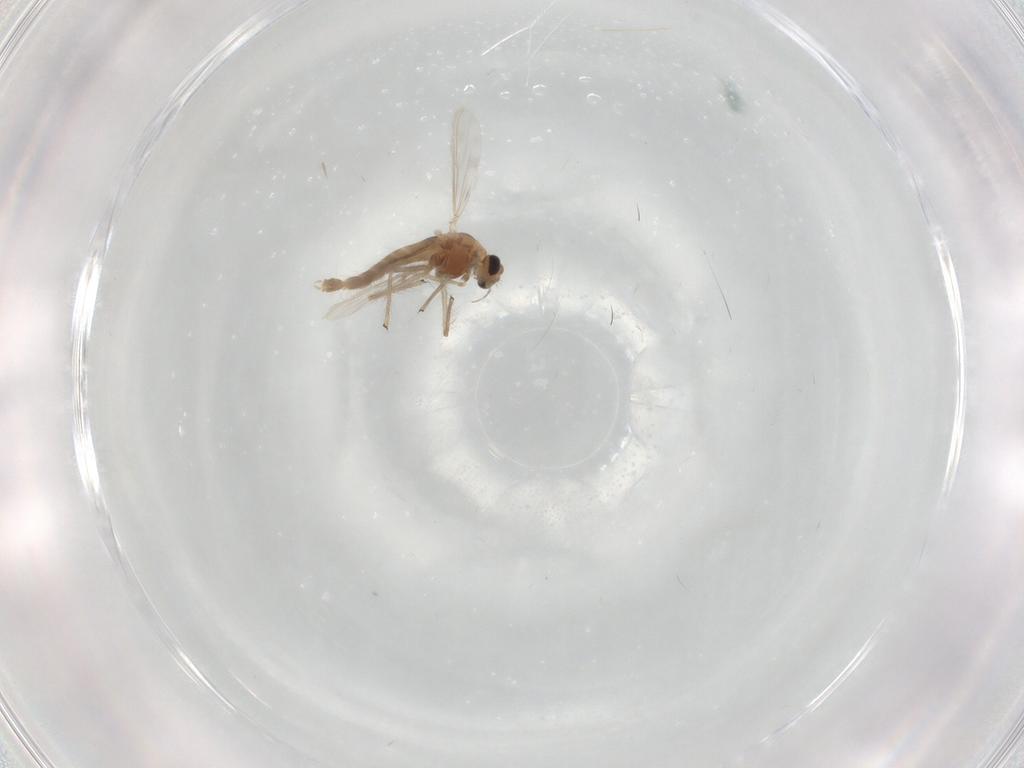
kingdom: Animalia
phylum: Arthropoda
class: Insecta
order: Diptera
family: Chironomidae
